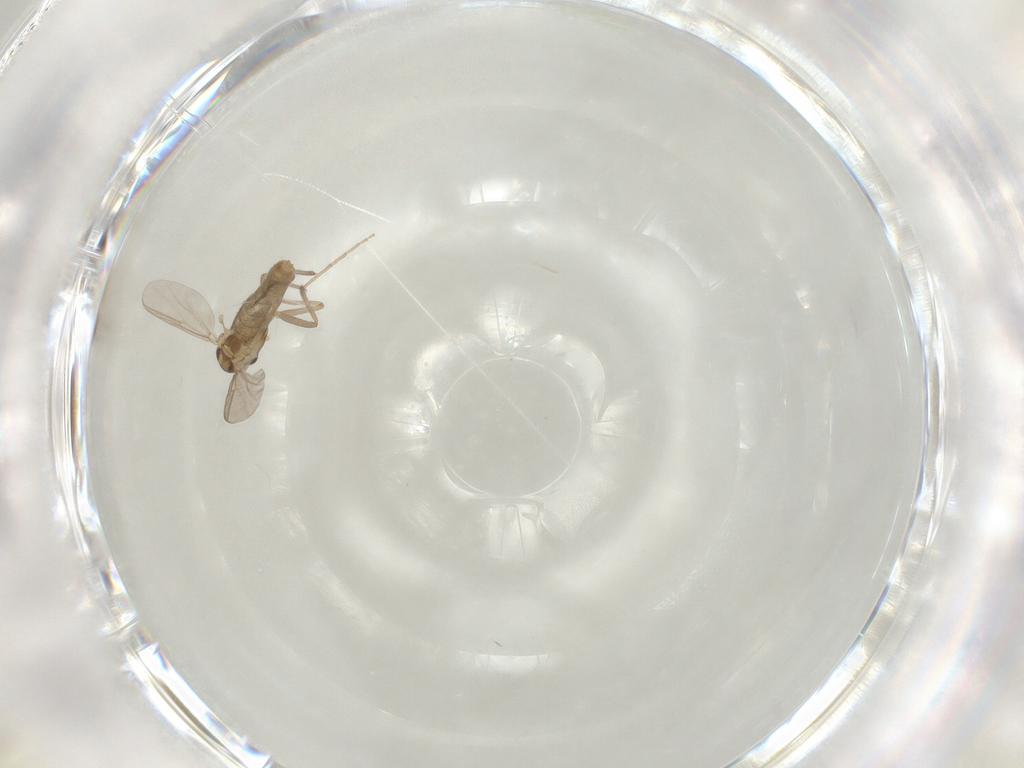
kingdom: Animalia
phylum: Arthropoda
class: Insecta
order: Diptera
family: Chironomidae
